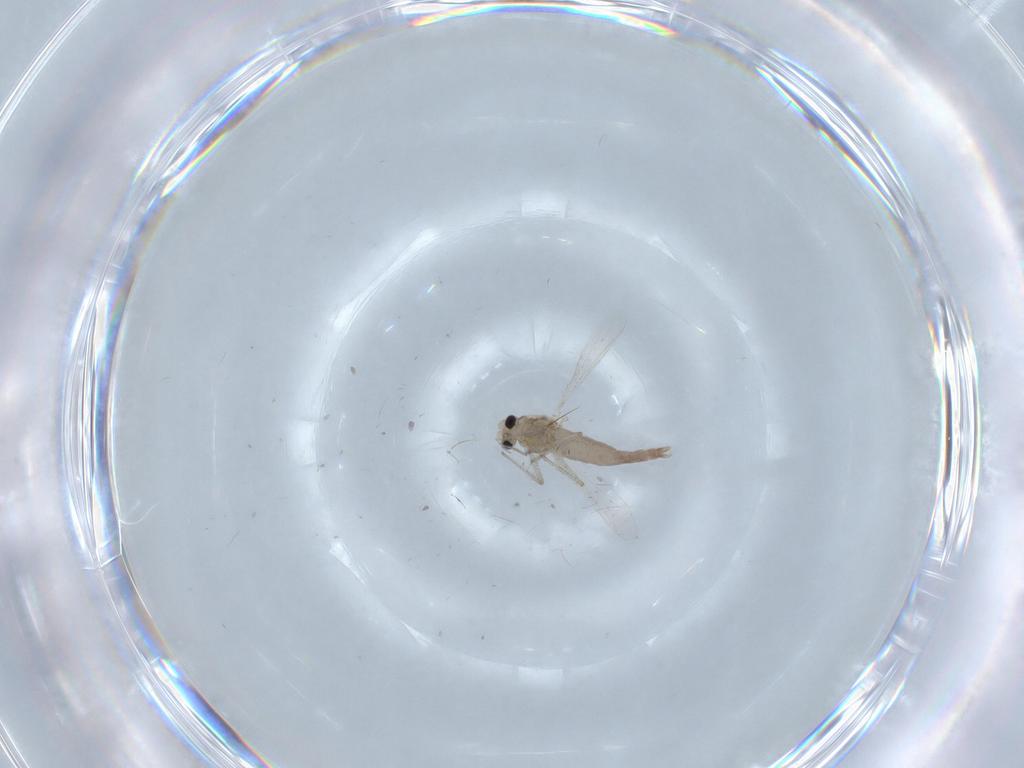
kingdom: Animalia
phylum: Arthropoda
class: Insecta
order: Diptera
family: Chironomidae
